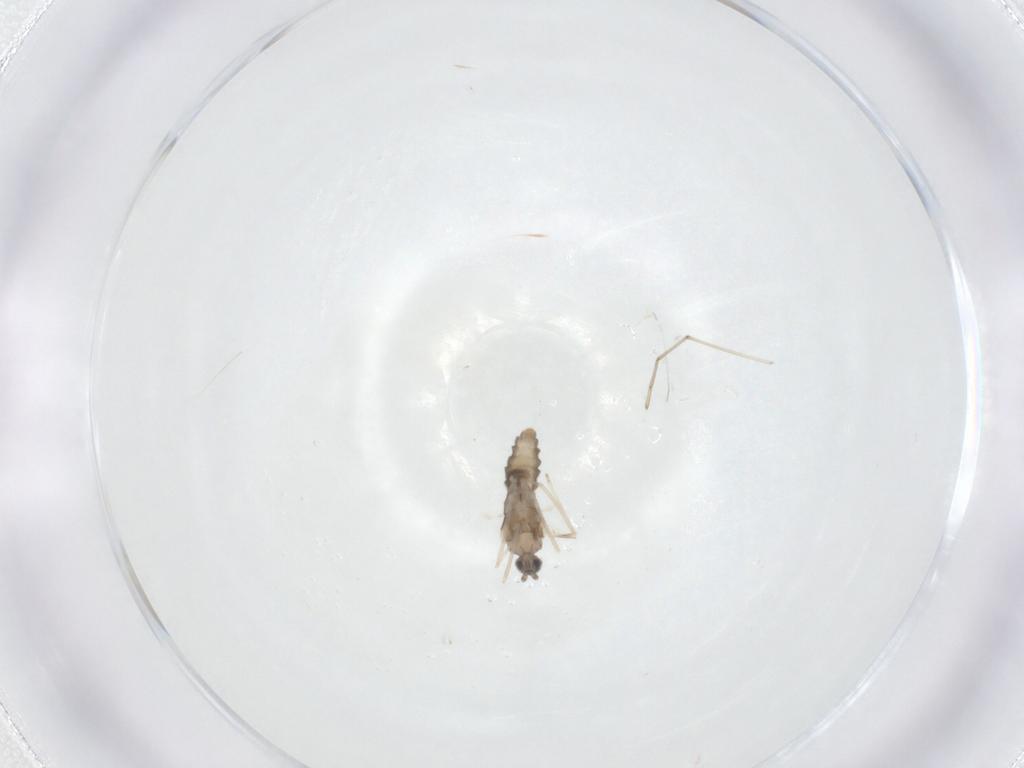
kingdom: Animalia
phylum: Arthropoda
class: Insecta
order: Diptera
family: Cecidomyiidae
